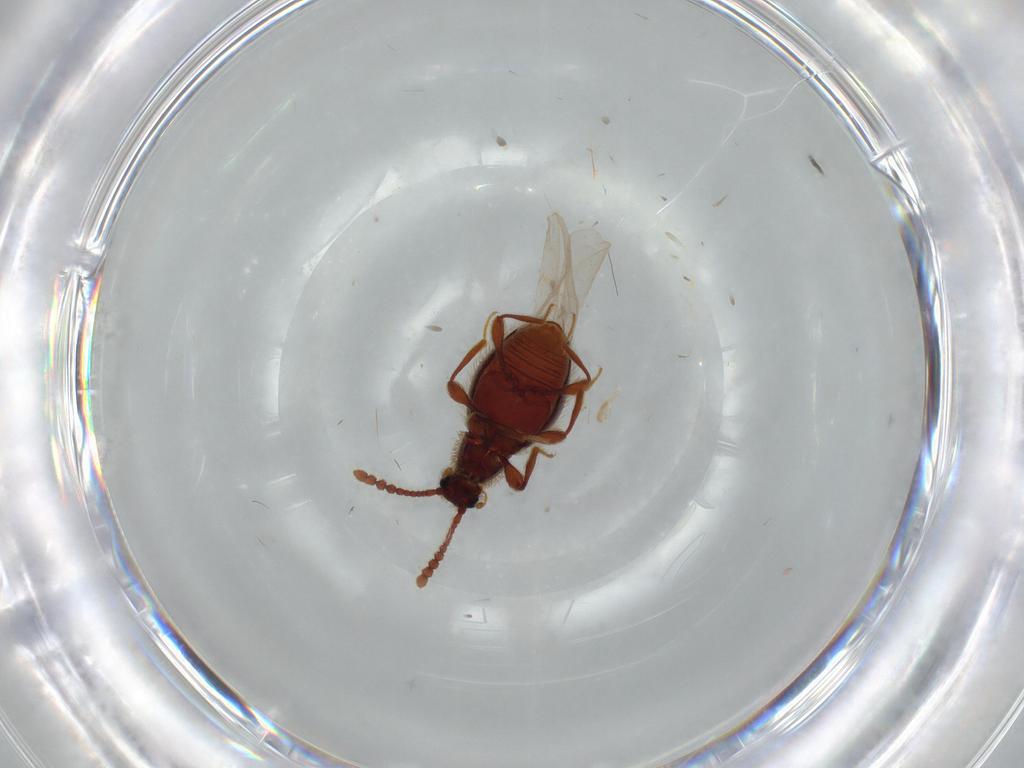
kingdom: Animalia
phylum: Arthropoda
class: Insecta
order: Coleoptera
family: Staphylinidae
